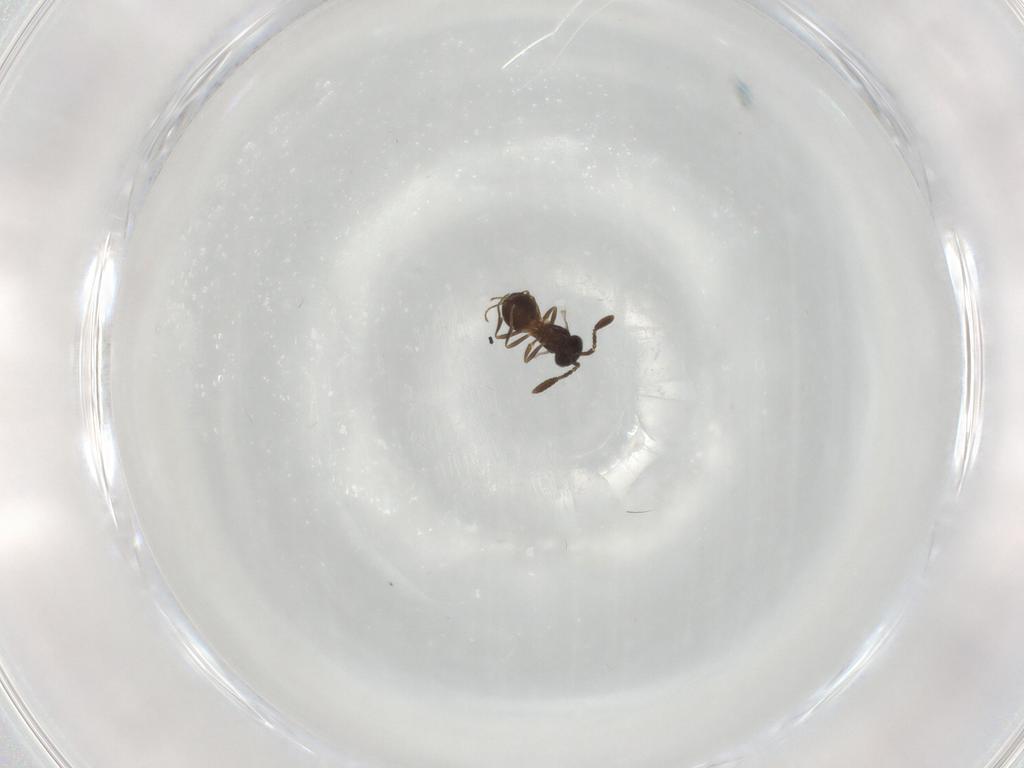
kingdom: Animalia
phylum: Arthropoda
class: Insecta
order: Hymenoptera
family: Scelionidae
